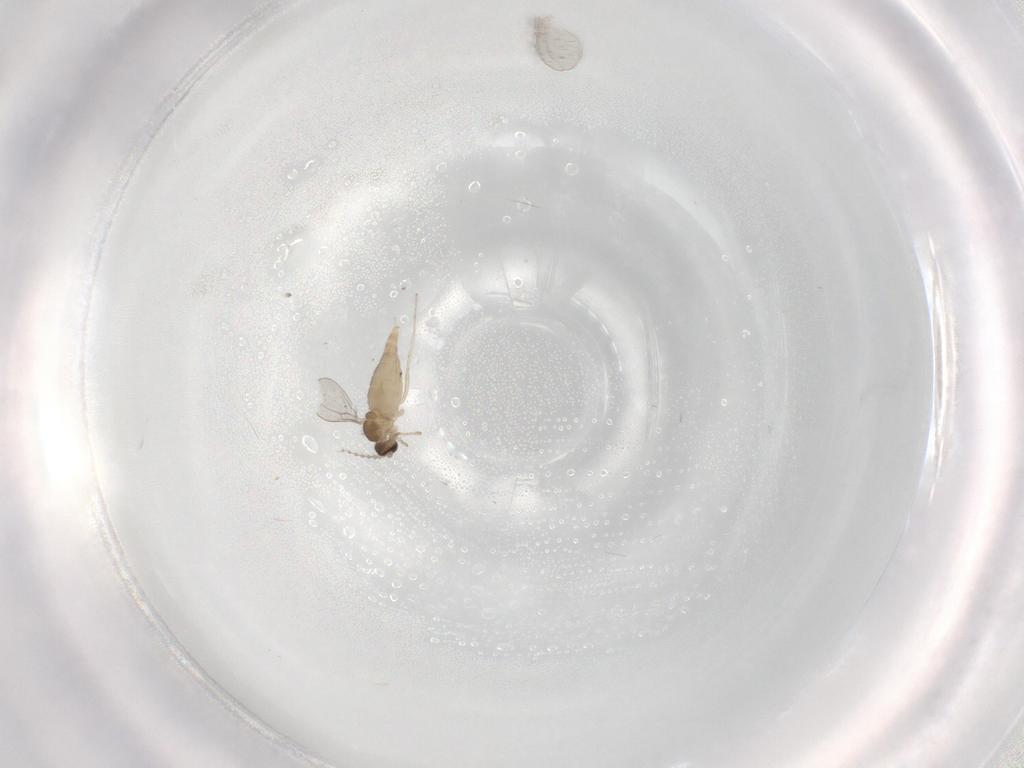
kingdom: Animalia
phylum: Arthropoda
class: Insecta
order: Diptera
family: Cecidomyiidae
